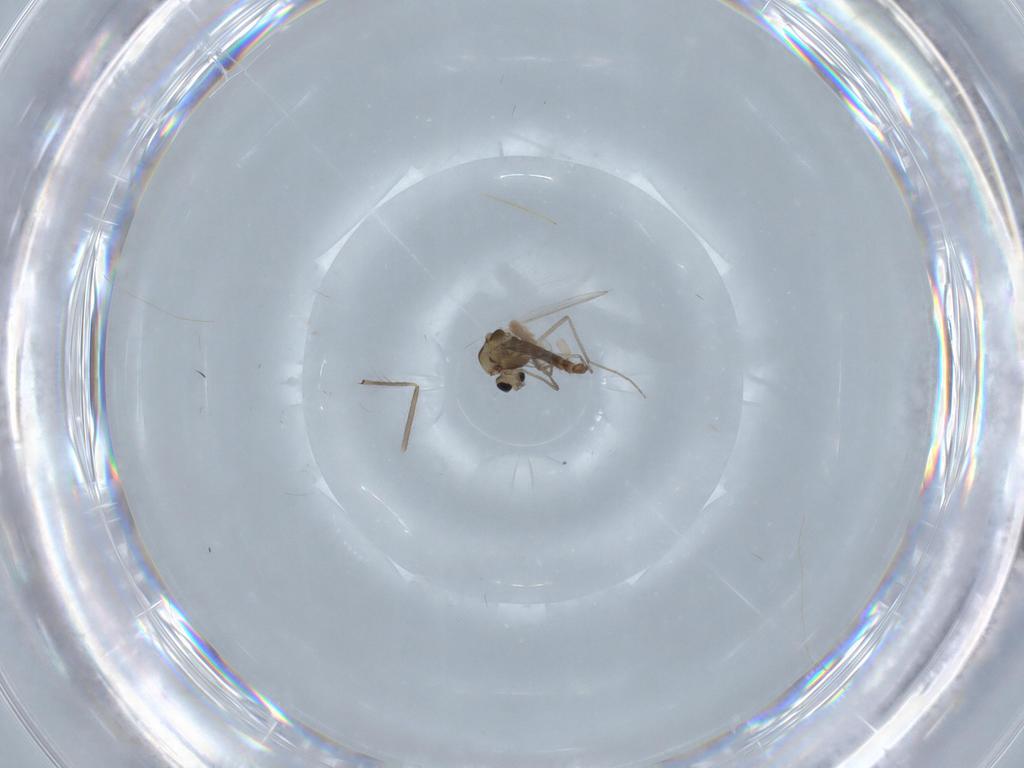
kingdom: Animalia
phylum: Arthropoda
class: Insecta
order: Diptera
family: Chironomidae
